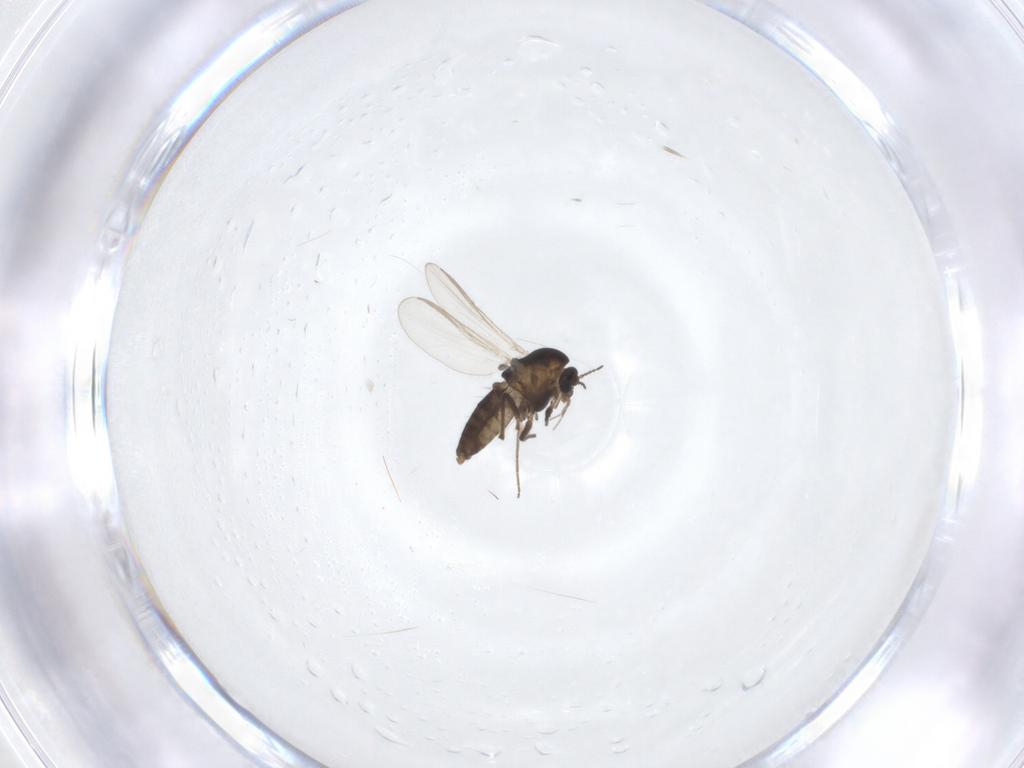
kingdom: Animalia
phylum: Arthropoda
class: Insecta
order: Diptera
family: Chironomidae
